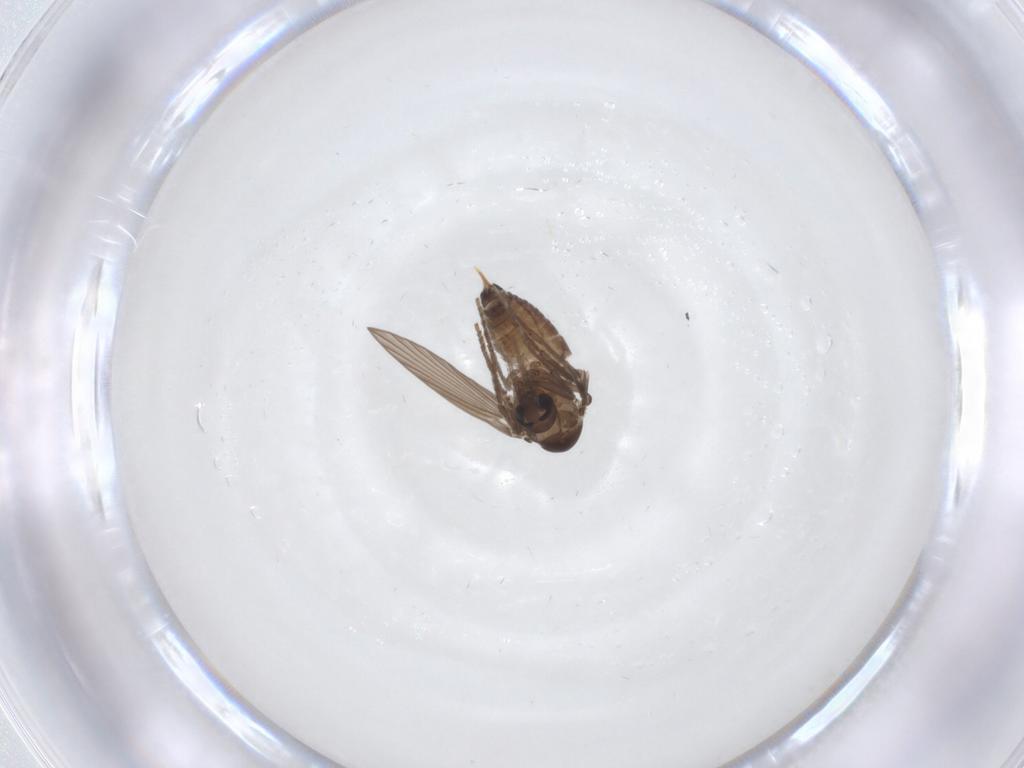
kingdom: Animalia
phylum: Arthropoda
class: Insecta
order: Diptera
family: Psychodidae
